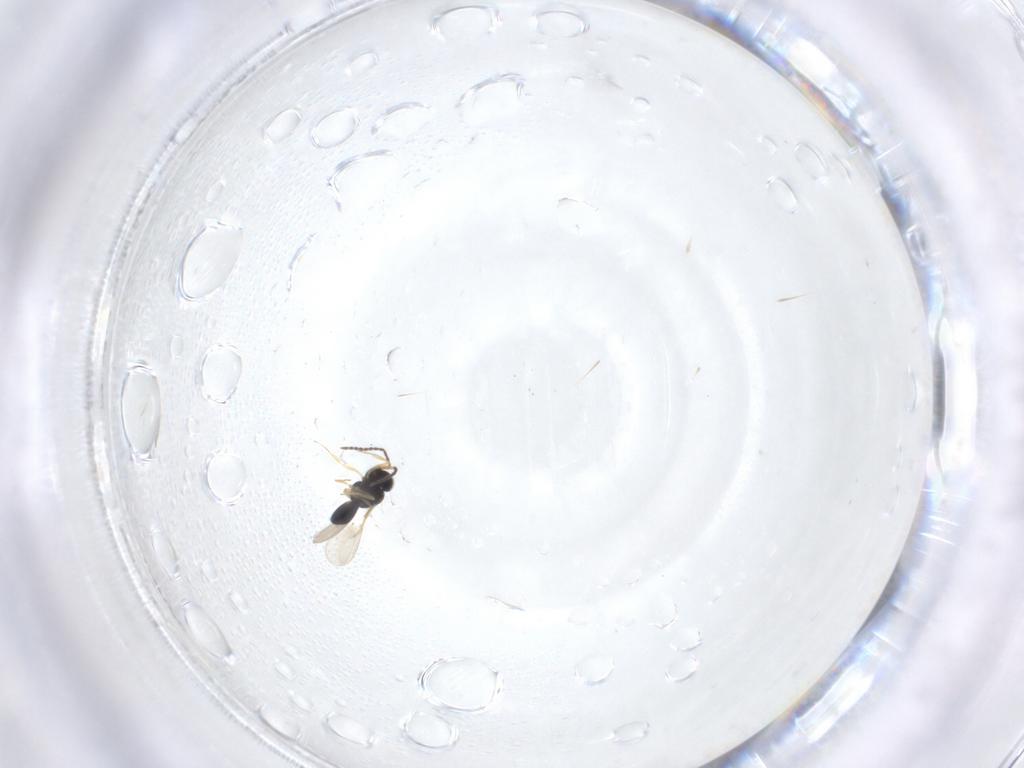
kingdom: Animalia
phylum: Arthropoda
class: Insecta
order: Hymenoptera
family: Scelionidae
